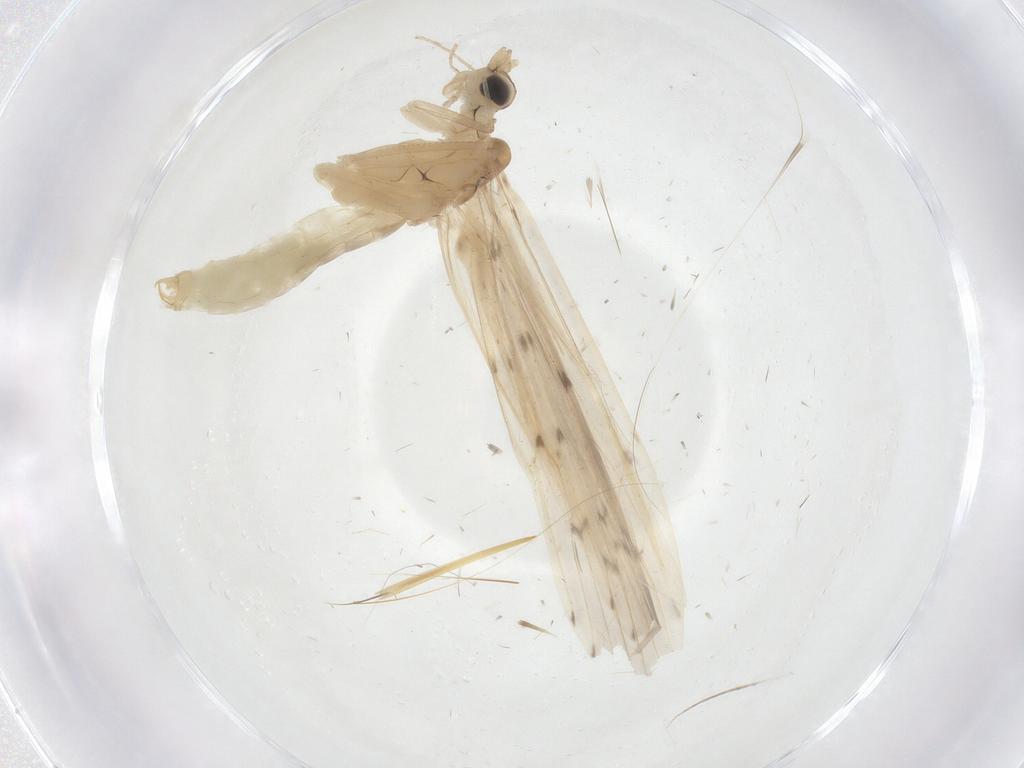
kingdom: Animalia
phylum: Arthropoda
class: Insecta
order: Trichoptera
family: Leptoceridae
